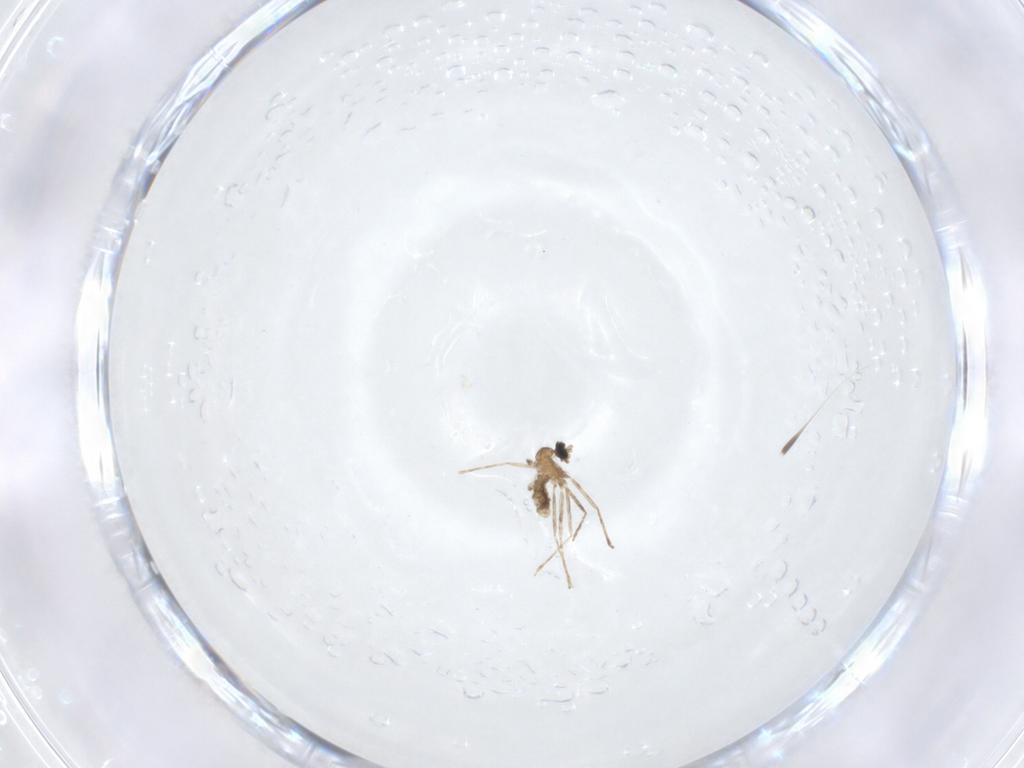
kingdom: Animalia
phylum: Arthropoda
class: Insecta
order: Diptera
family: Cecidomyiidae
